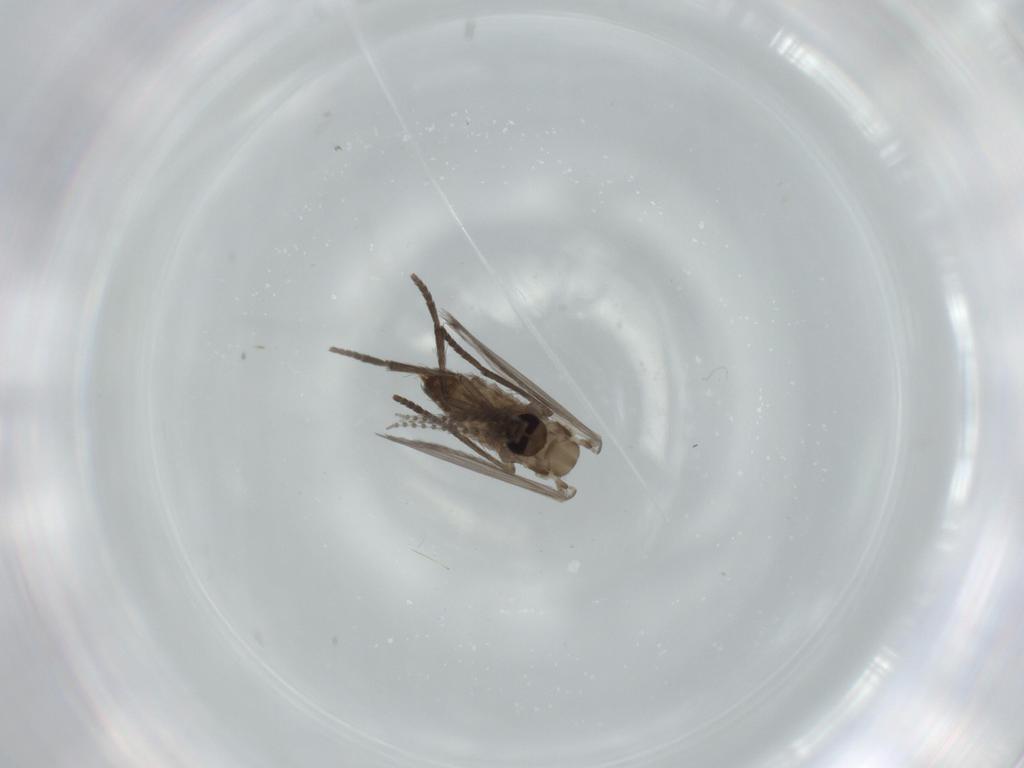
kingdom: Animalia
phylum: Arthropoda
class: Insecta
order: Diptera
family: Psychodidae
